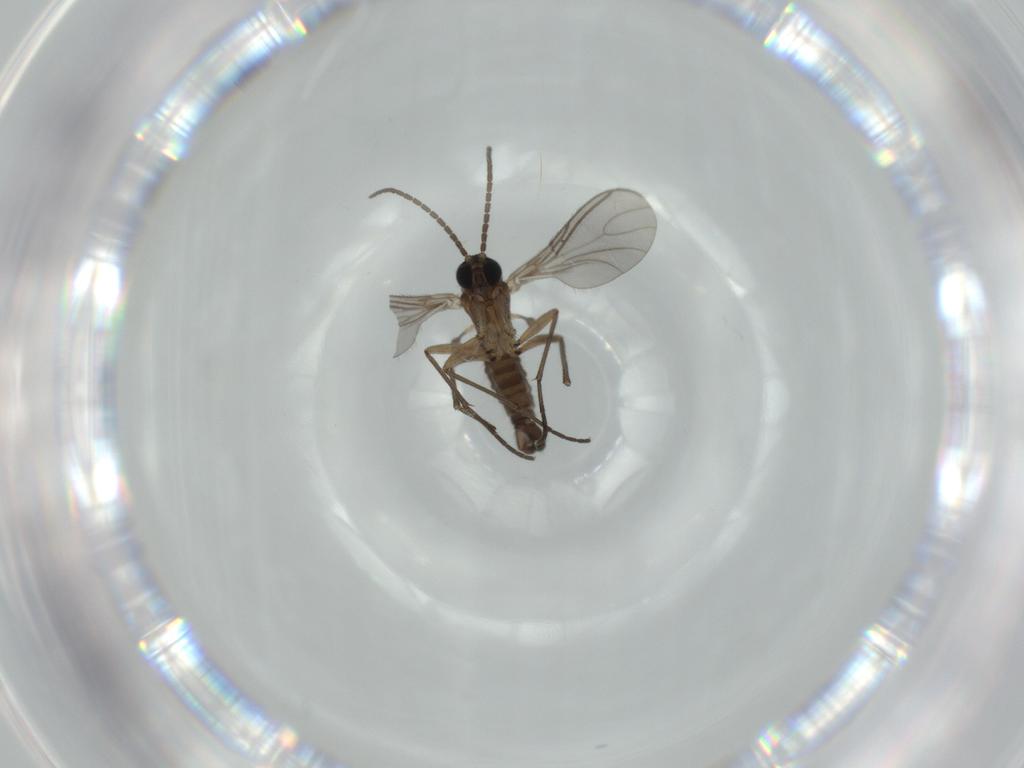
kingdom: Animalia
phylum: Arthropoda
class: Insecta
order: Diptera
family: Sciaridae
